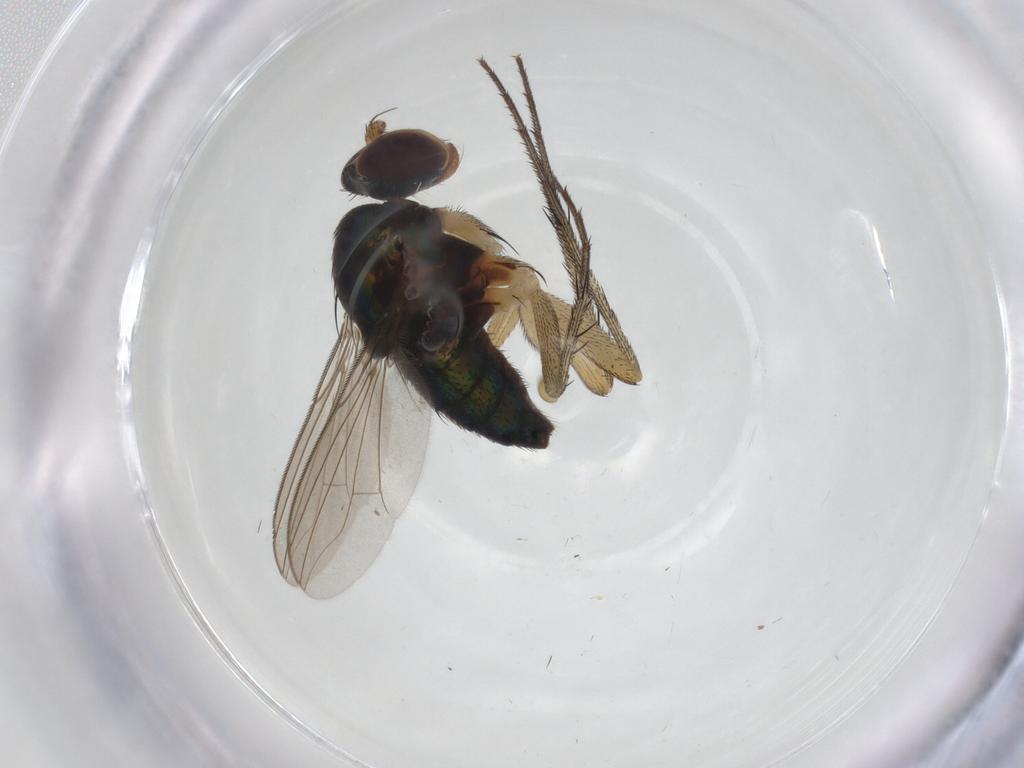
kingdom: Animalia
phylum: Arthropoda
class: Insecta
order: Diptera
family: Dolichopodidae
